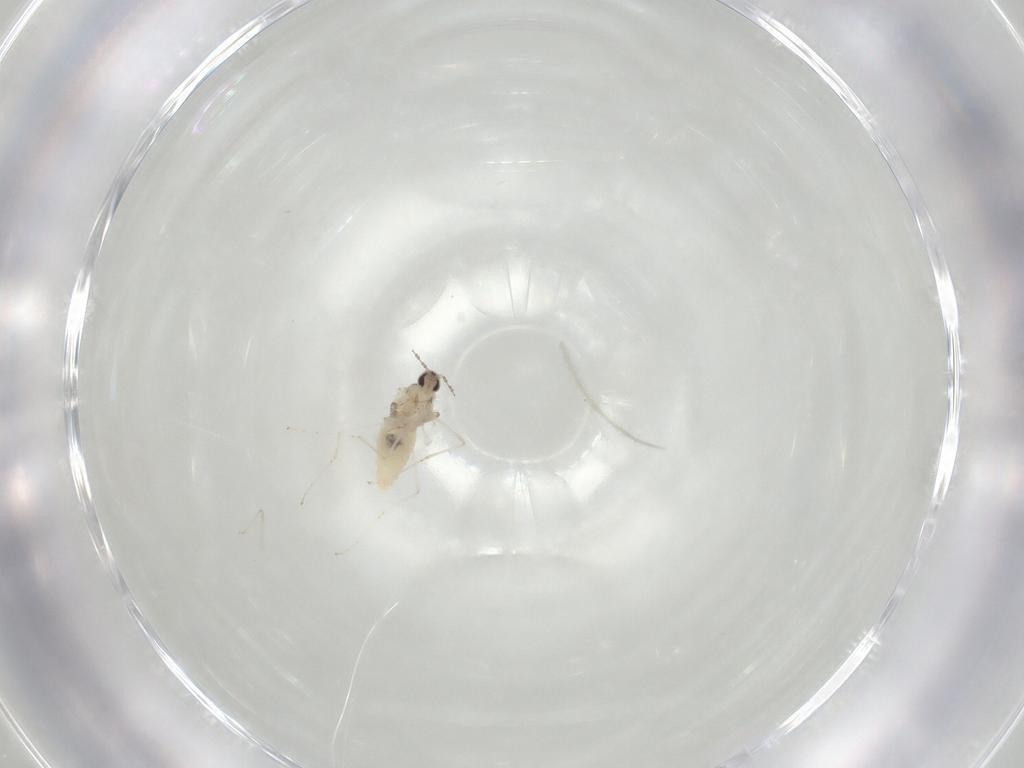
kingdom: Animalia
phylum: Arthropoda
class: Insecta
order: Diptera
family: Cecidomyiidae
